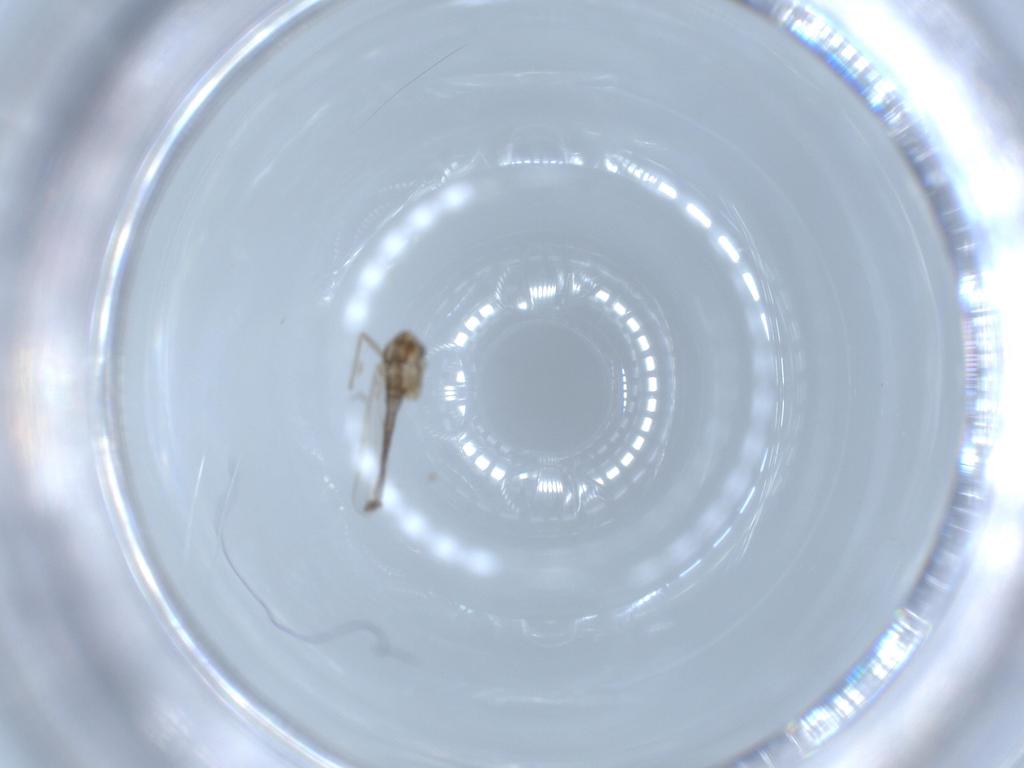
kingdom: Animalia
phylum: Arthropoda
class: Insecta
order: Diptera
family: Chironomidae
